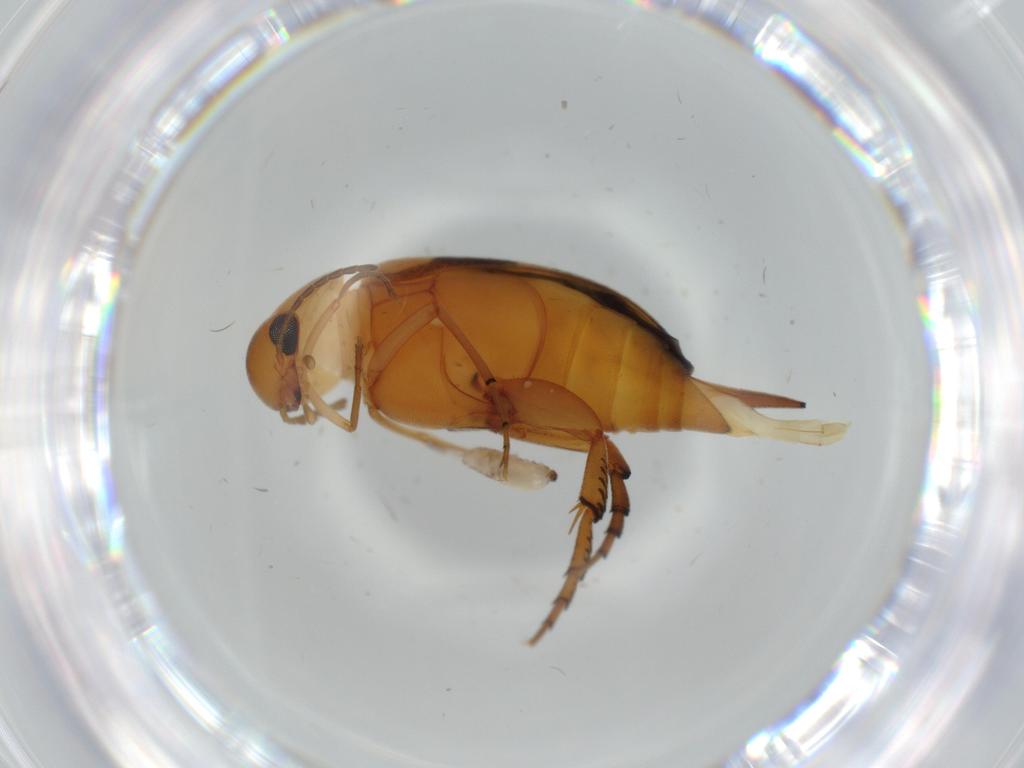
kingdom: Animalia
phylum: Arthropoda
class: Insecta
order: Coleoptera
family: Mordellidae
